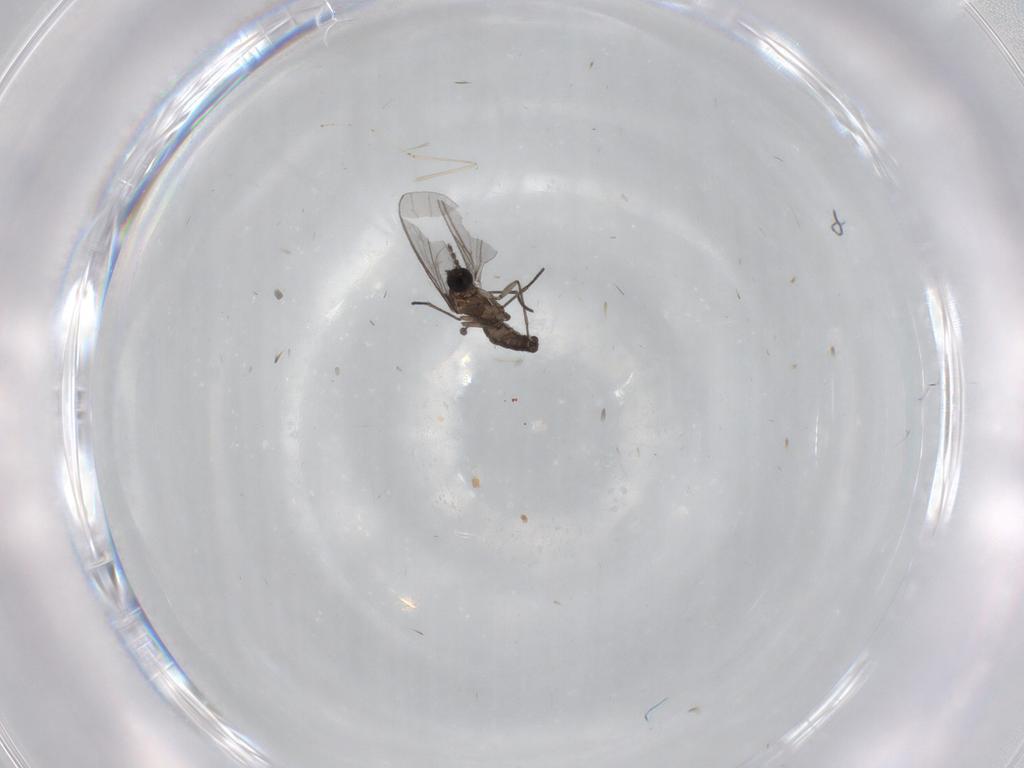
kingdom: Animalia
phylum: Arthropoda
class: Insecta
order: Diptera
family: Sciaridae
